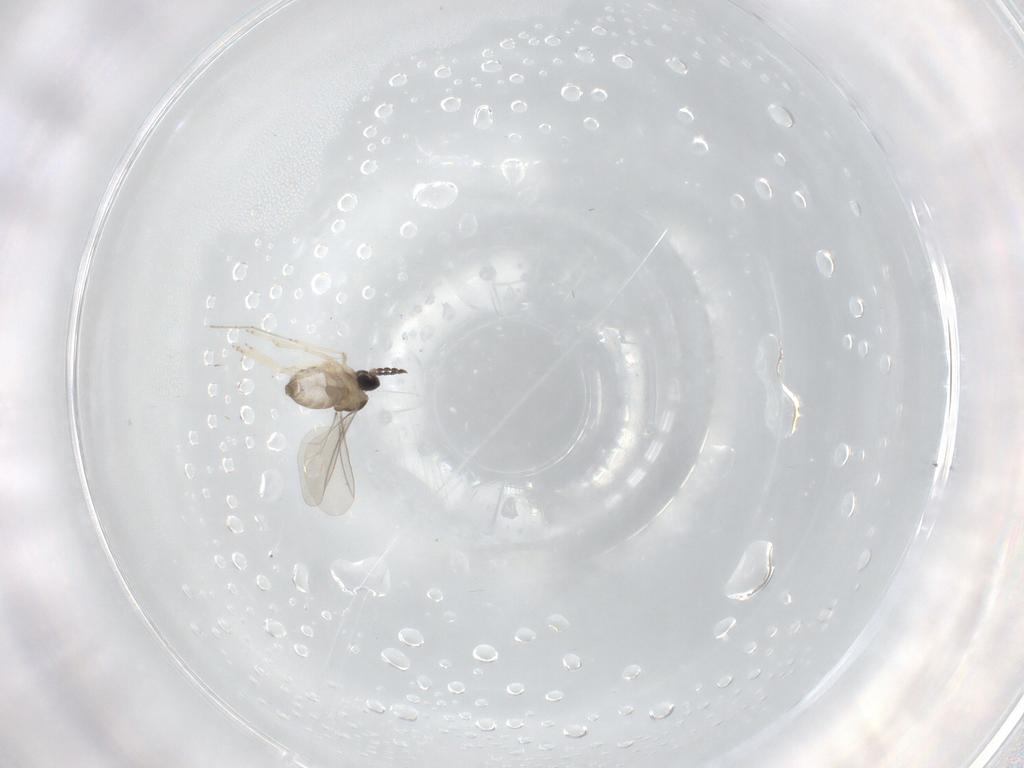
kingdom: Animalia
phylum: Arthropoda
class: Insecta
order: Diptera
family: Cecidomyiidae
